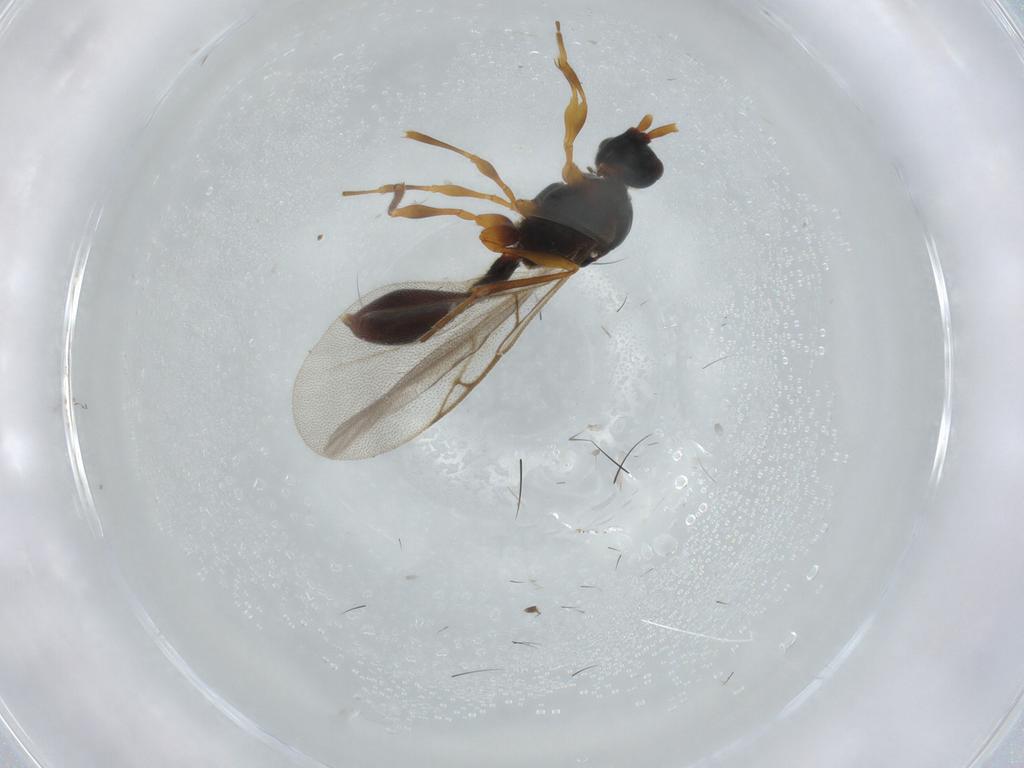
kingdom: Animalia
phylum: Arthropoda
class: Insecta
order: Hymenoptera
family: Diapriidae
